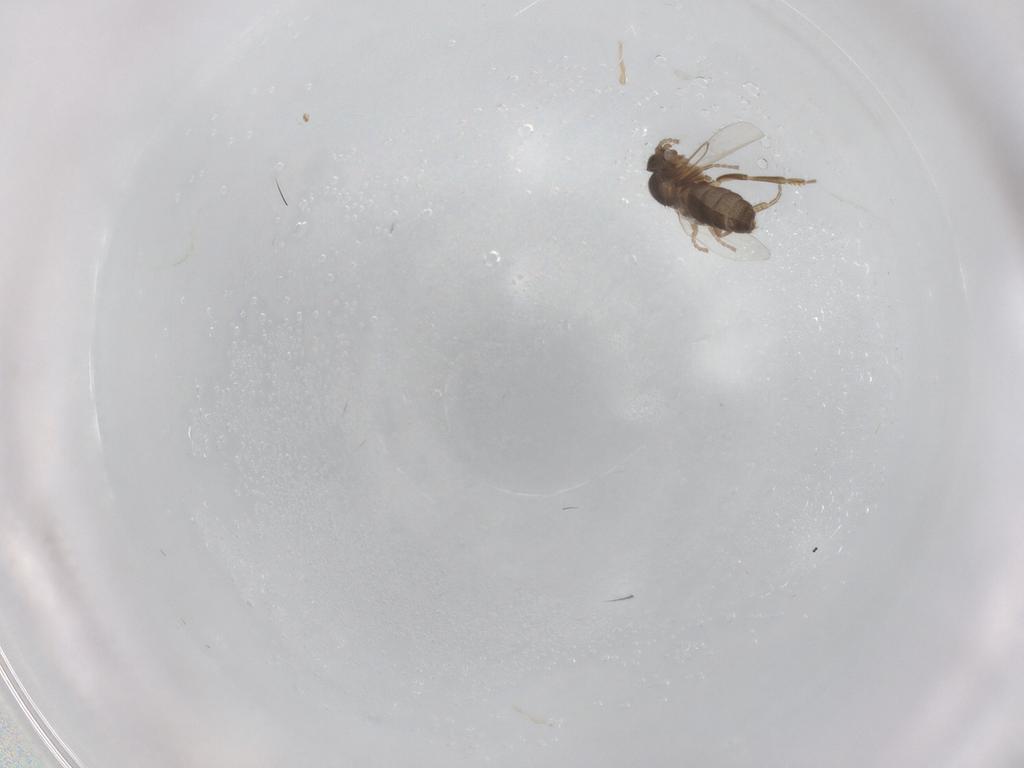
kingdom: Animalia
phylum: Arthropoda
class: Insecta
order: Diptera
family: Phoridae
